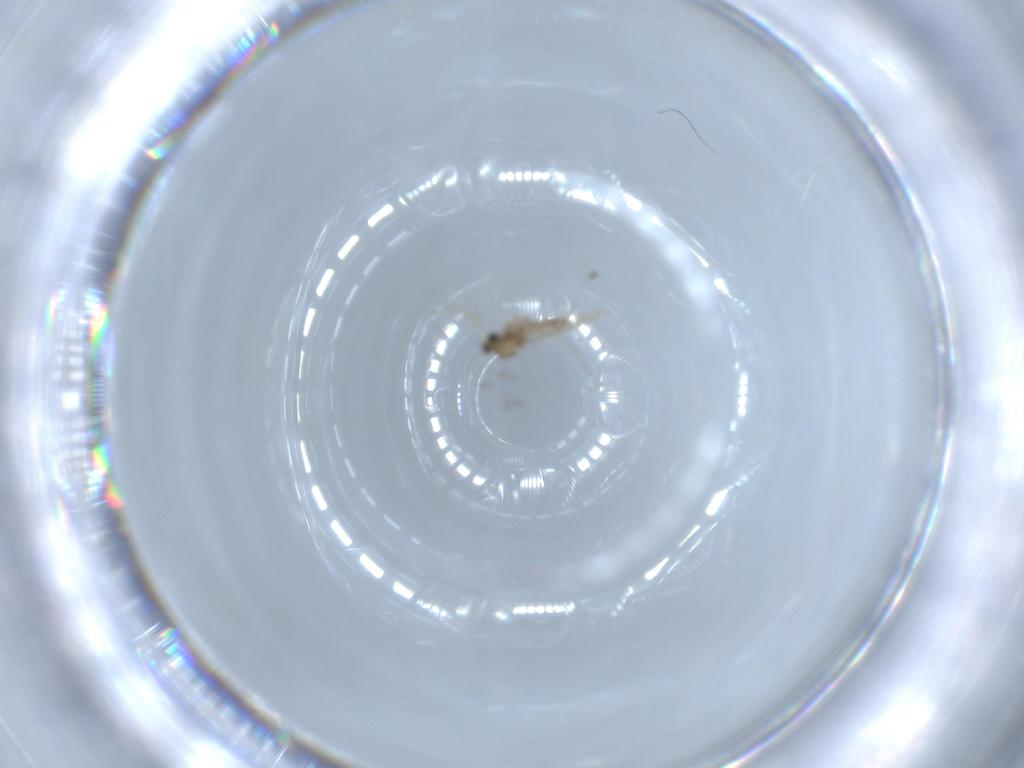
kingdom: Animalia
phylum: Arthropoda
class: Insecta
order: Diptera
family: Cecidomyiidae
